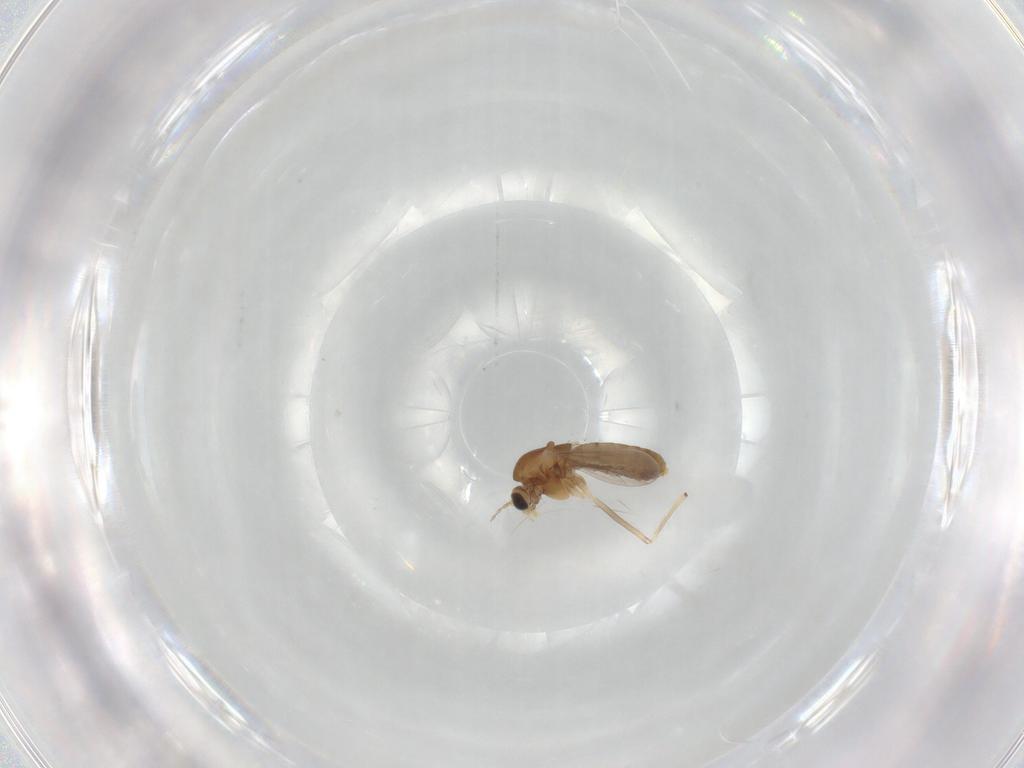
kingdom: Animalia
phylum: Arthropoda
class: Insecta
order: Diptera
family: Chironomidae
